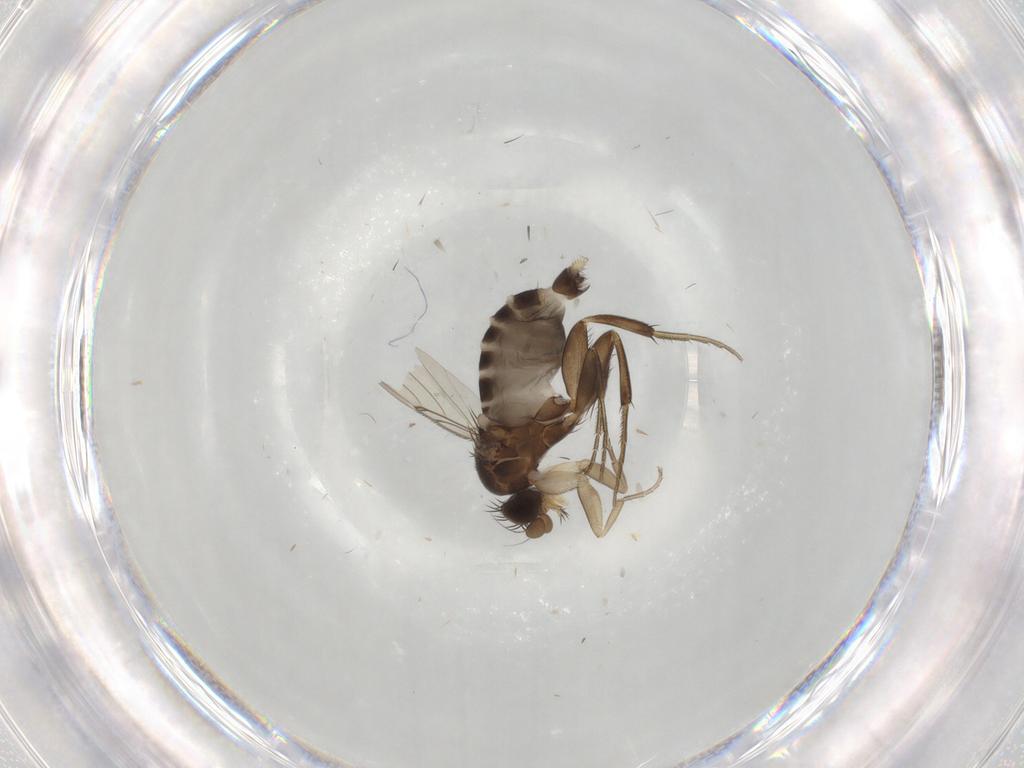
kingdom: Animalia
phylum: Arthropoda
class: Insecta
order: Diptera
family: Phoridae
